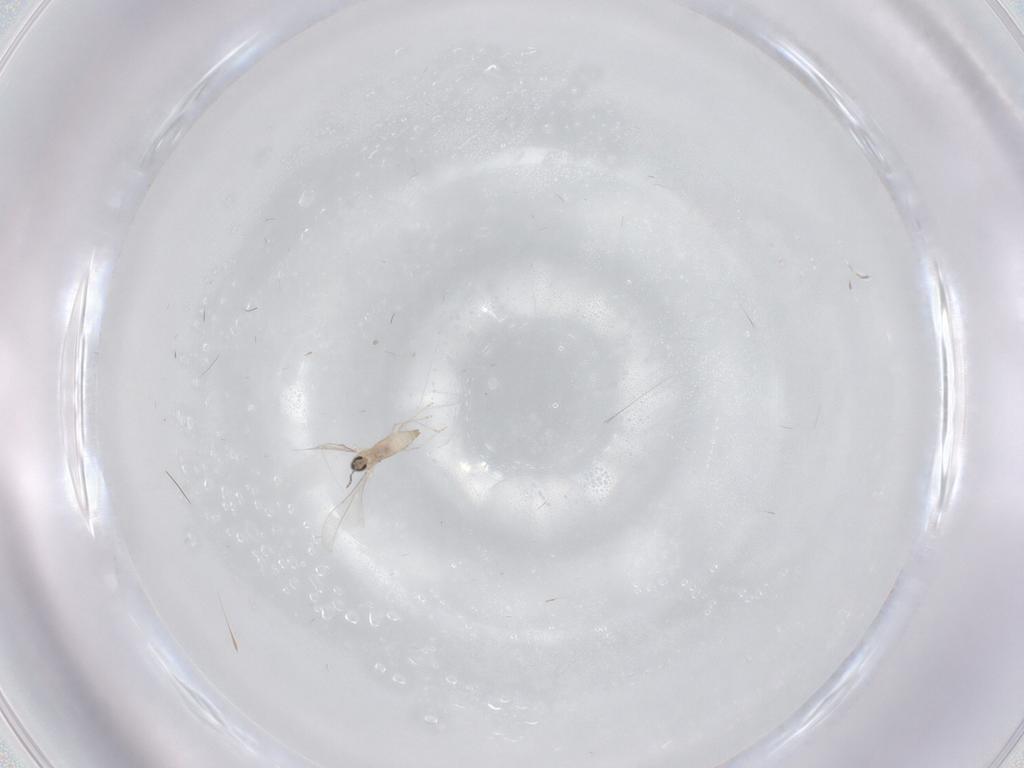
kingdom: Animalia
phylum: Arthropoda
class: Insecta
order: Diptera
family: Cecidomyiidae
